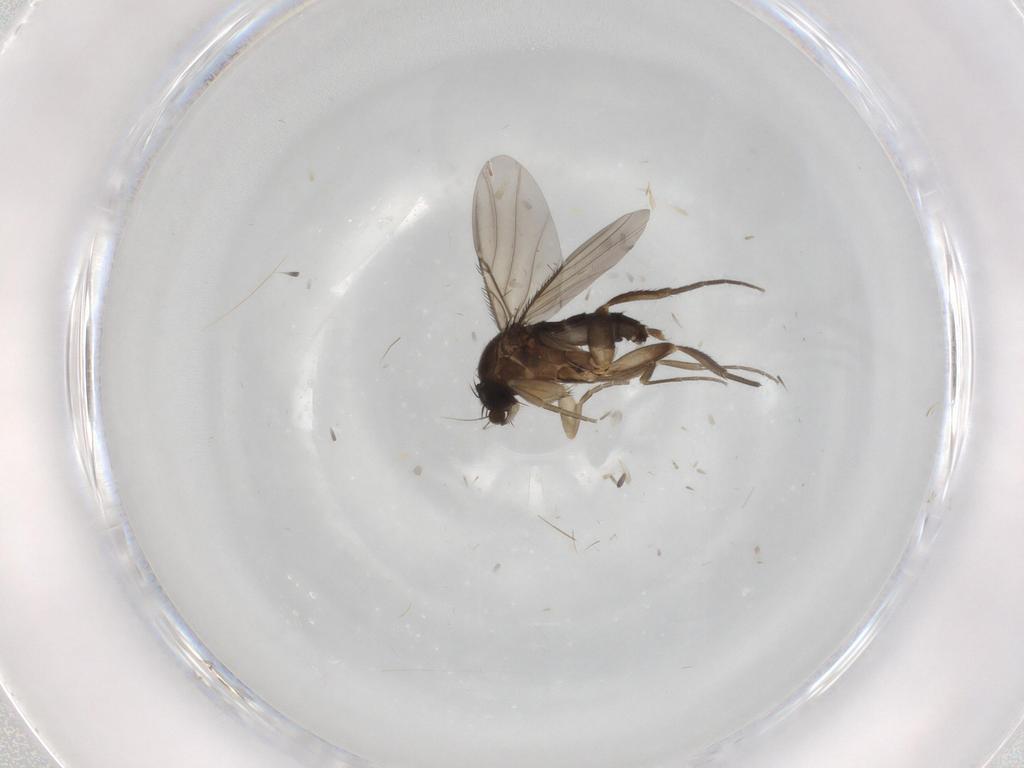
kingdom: Animalia
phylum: Arthropoda
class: Insecta
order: Diptera
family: Phoridae
